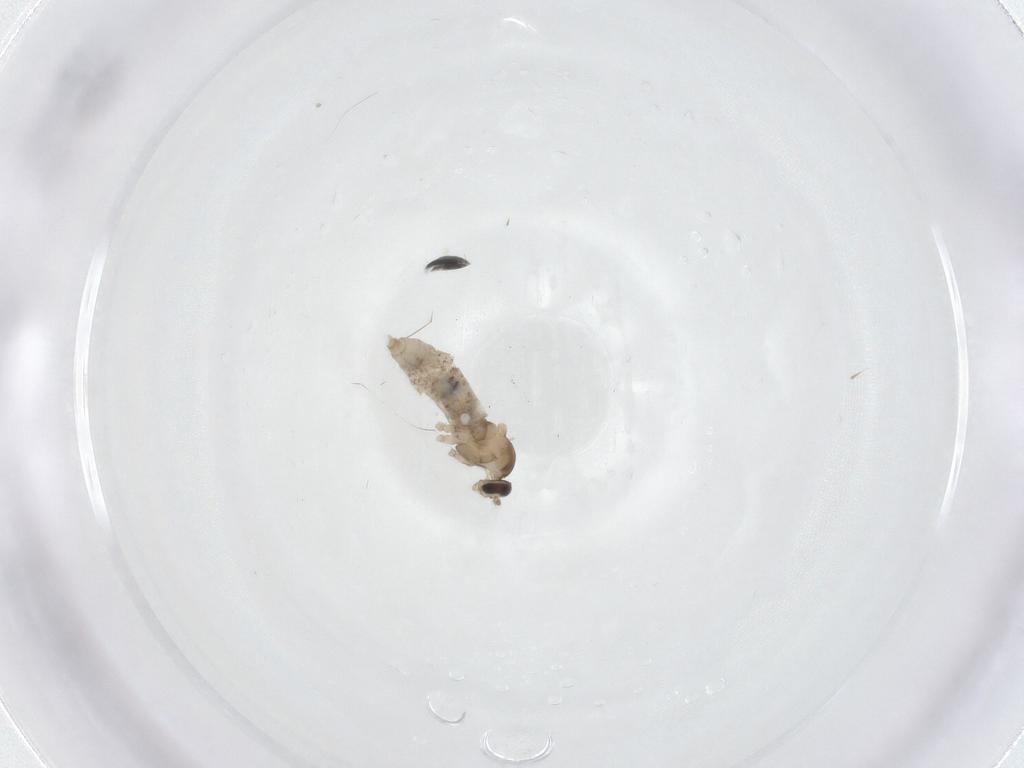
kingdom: Animalia
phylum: Arthropoda
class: Insecta
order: Diptera
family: Cecidomyiidae
